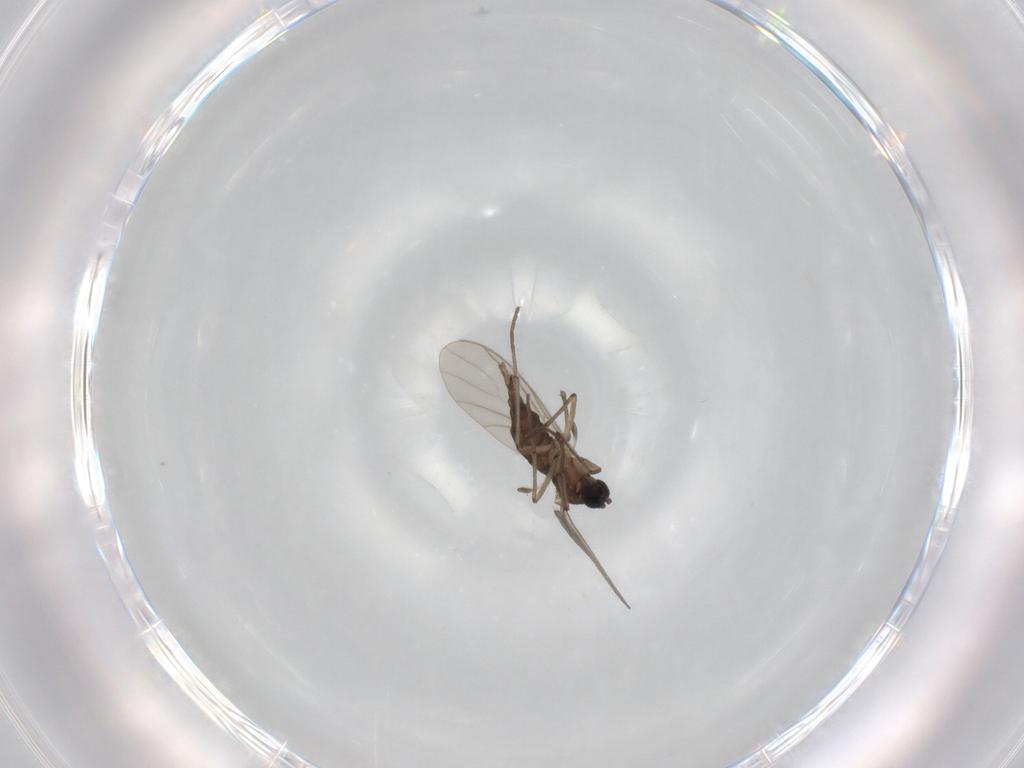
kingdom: Animalia
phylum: Arthropoda
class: Insecta
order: Diptera
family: Sciaridae
